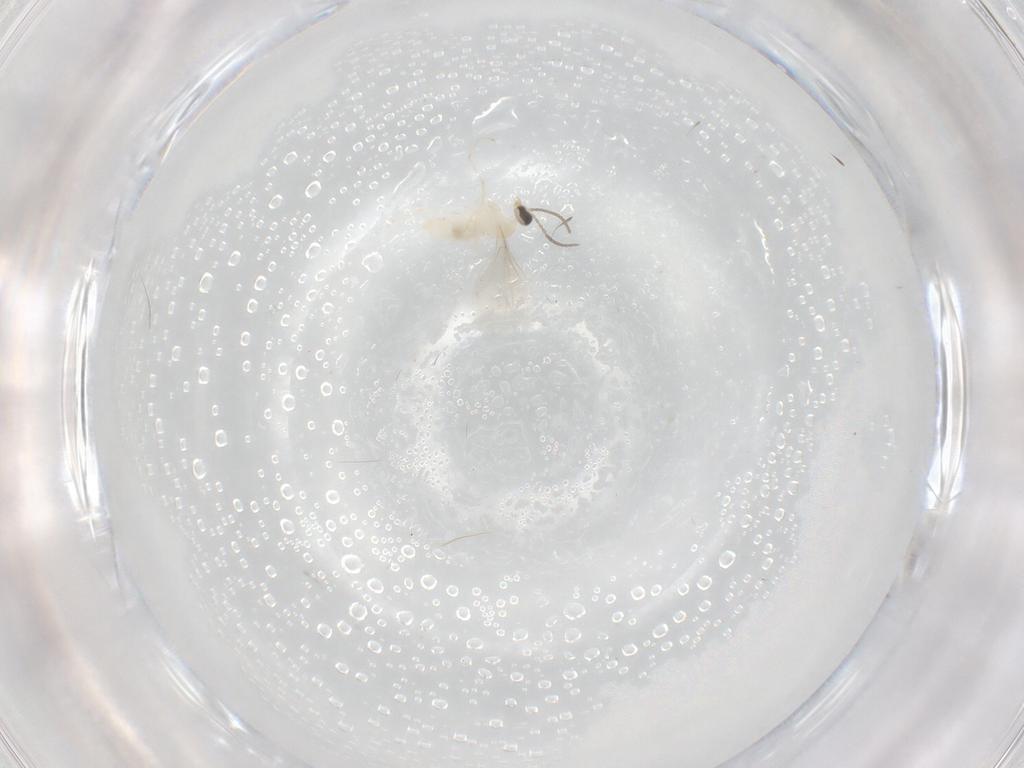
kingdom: Animalia
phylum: Arthropoda
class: Insecta
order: Diptera
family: Cecidomyiidae
